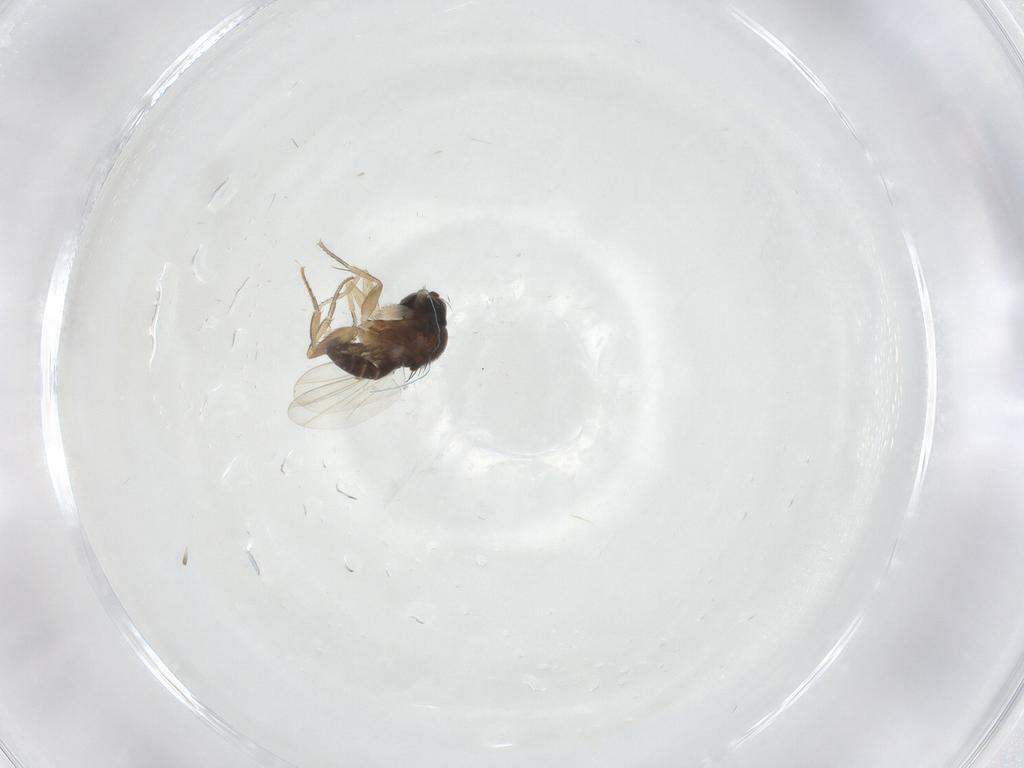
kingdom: Animalia
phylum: Arthropoda
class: Insecta
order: Diptera
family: Phoridae
